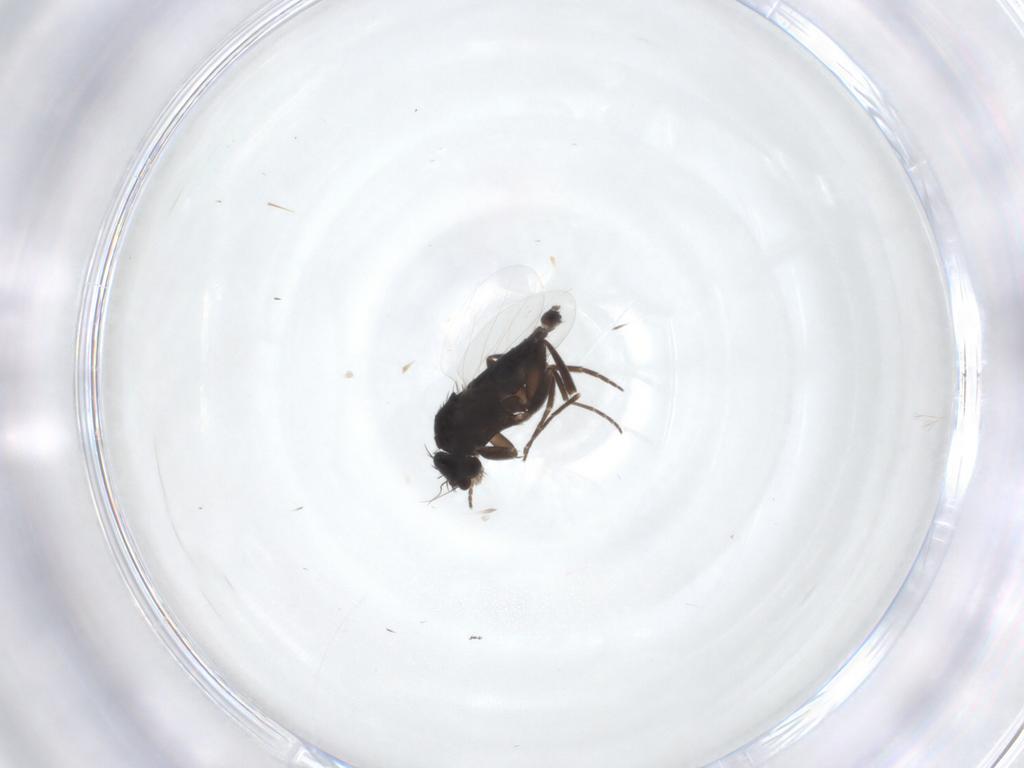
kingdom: Animalia
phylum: Arthropoda
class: Insecta
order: Diptera
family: Phoridae
